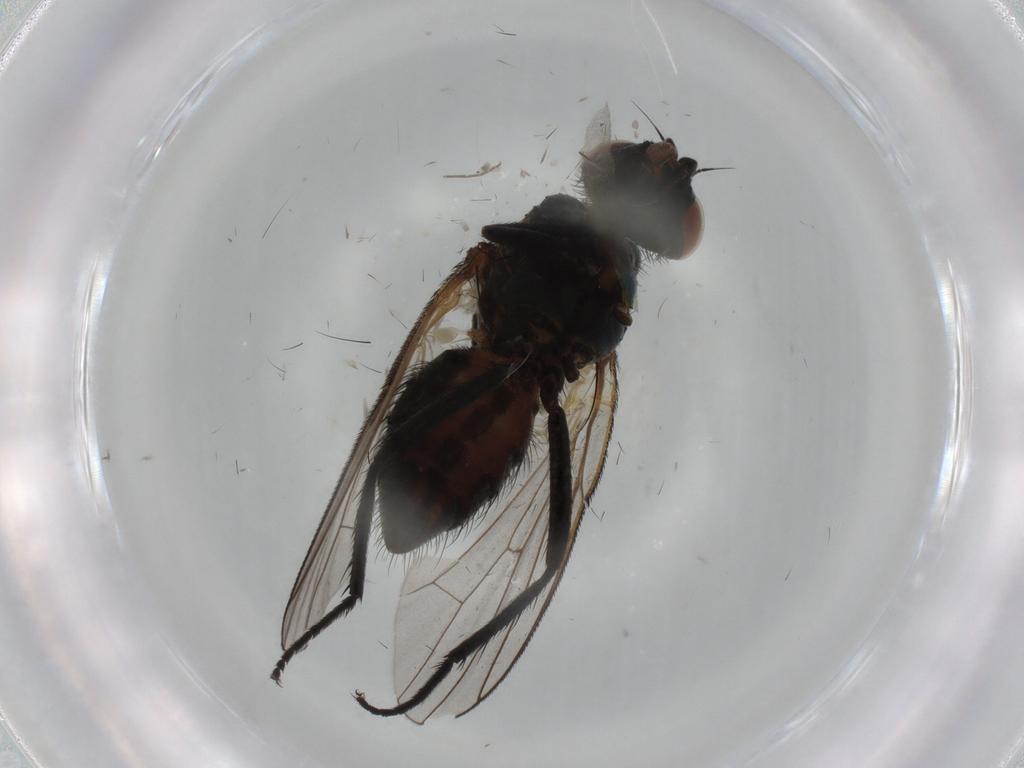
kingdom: Animalia
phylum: Arthropoda
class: Insecta
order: Diptera
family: Anthomyiidae
